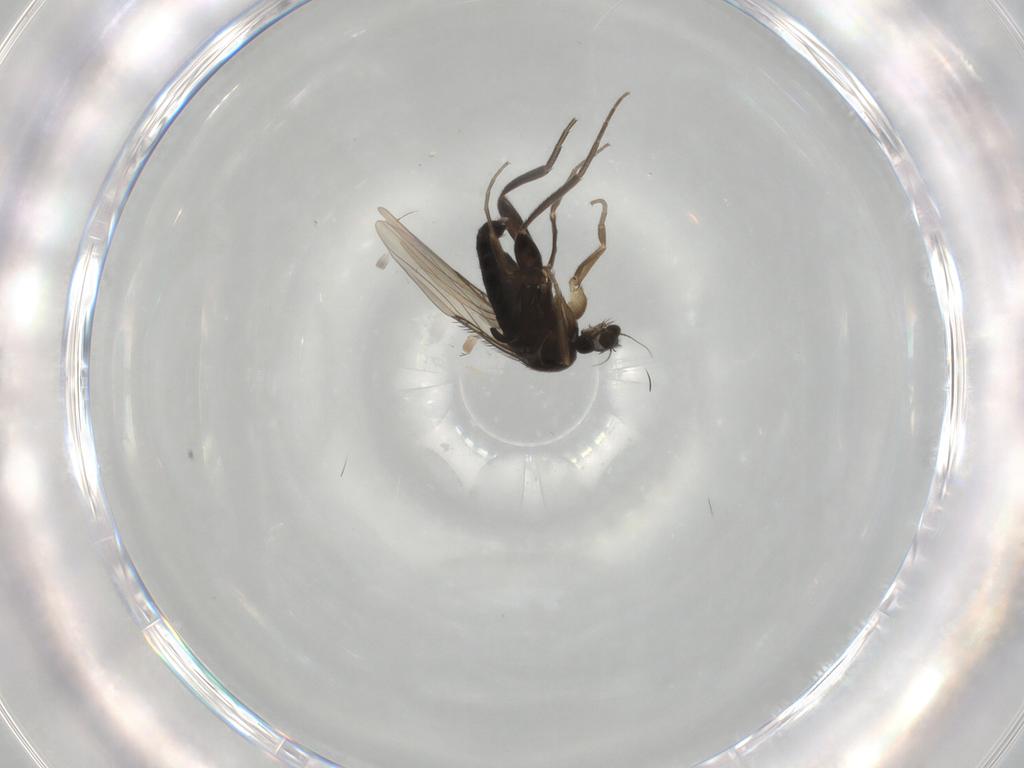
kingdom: Animalia
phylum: Arthropoda
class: Insecta
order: Diptera
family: Phoridae
